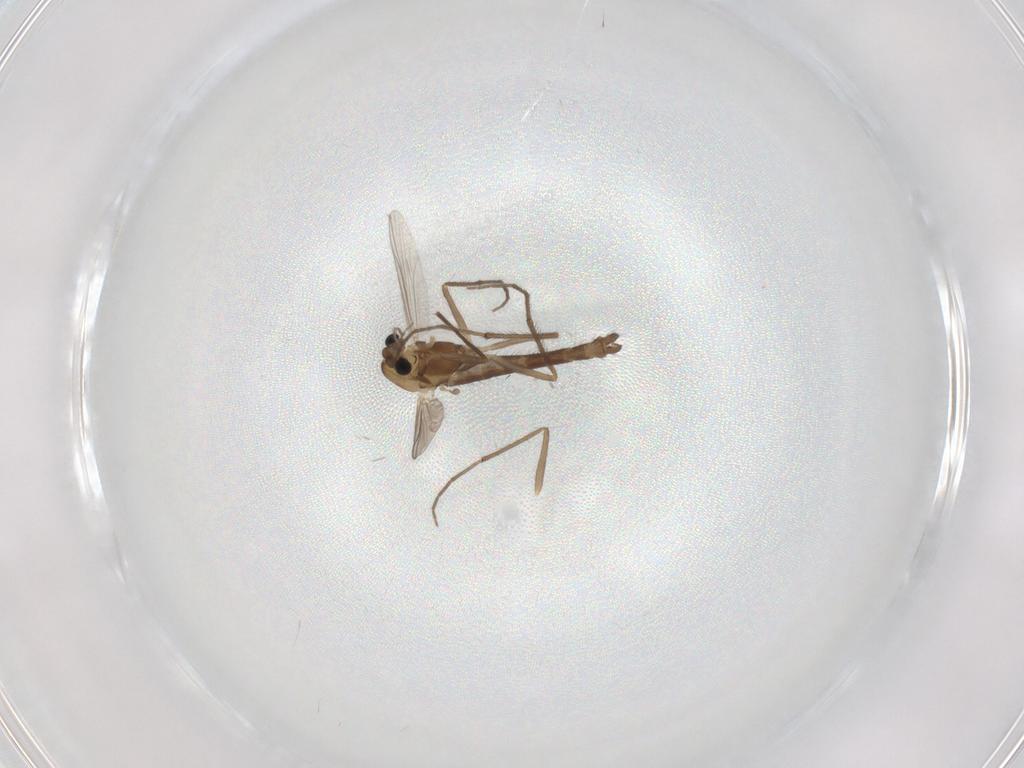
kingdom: Animalia
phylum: Arthropoda
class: Insecta
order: Diptera
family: Chironomidae
